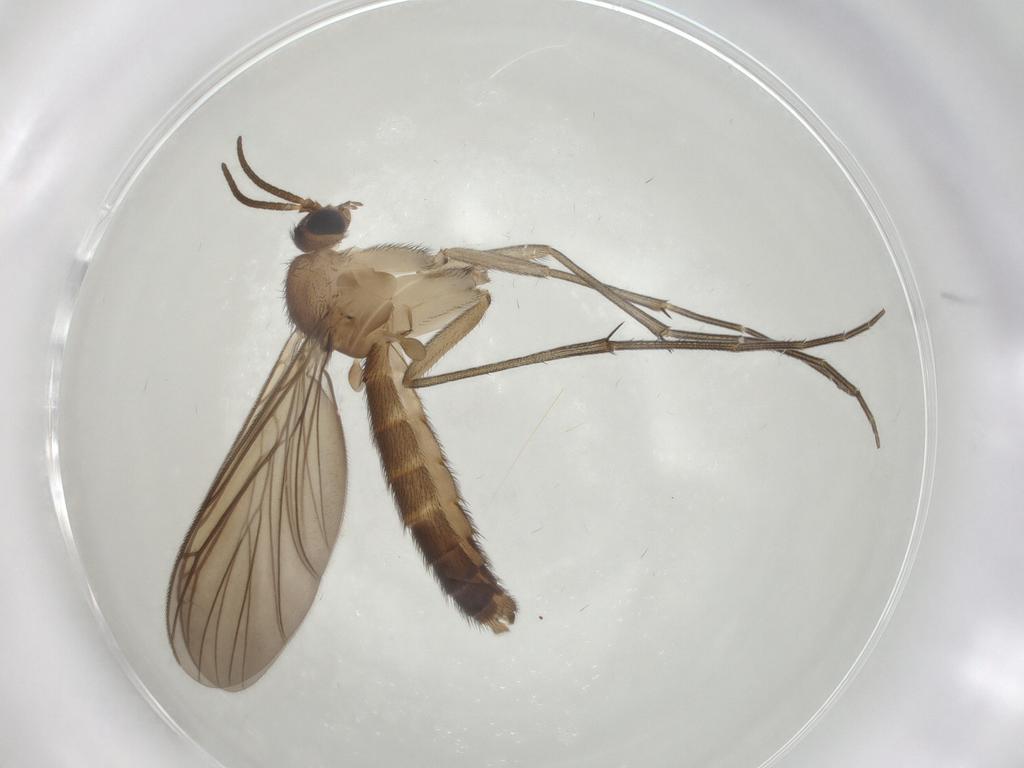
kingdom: Animalia
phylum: Arthropoda
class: Insecta
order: Diptera
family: Keroplatidae
